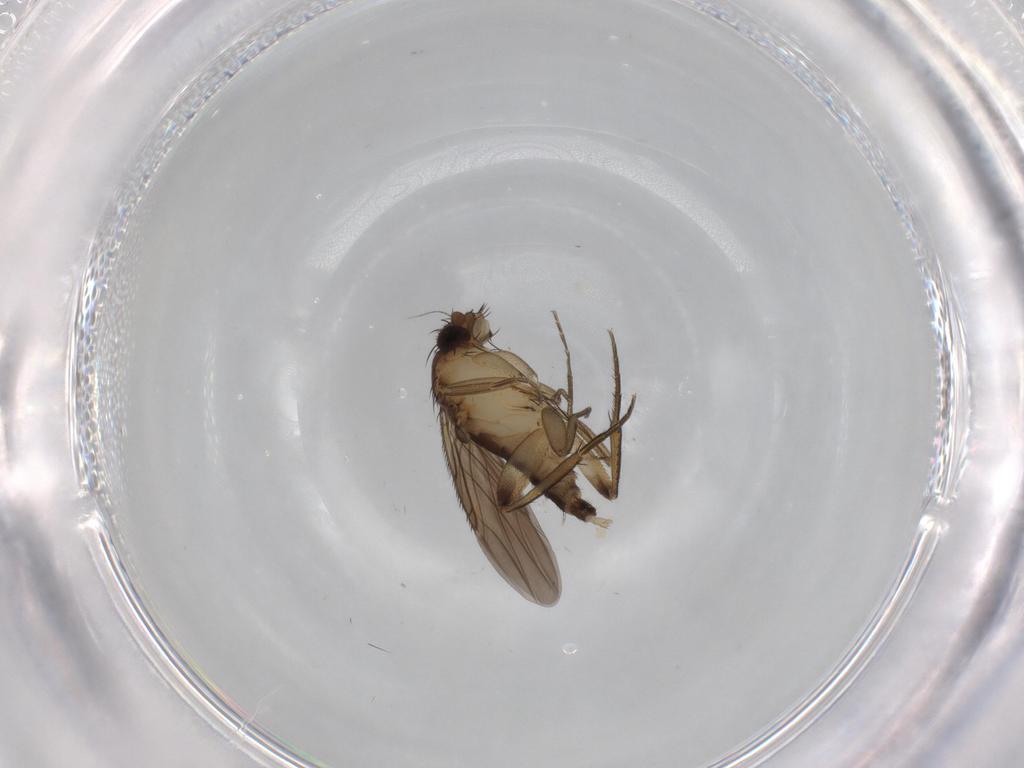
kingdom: Animalia
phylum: Arthropoda
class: Insecta
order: Diptera
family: Phoridae
